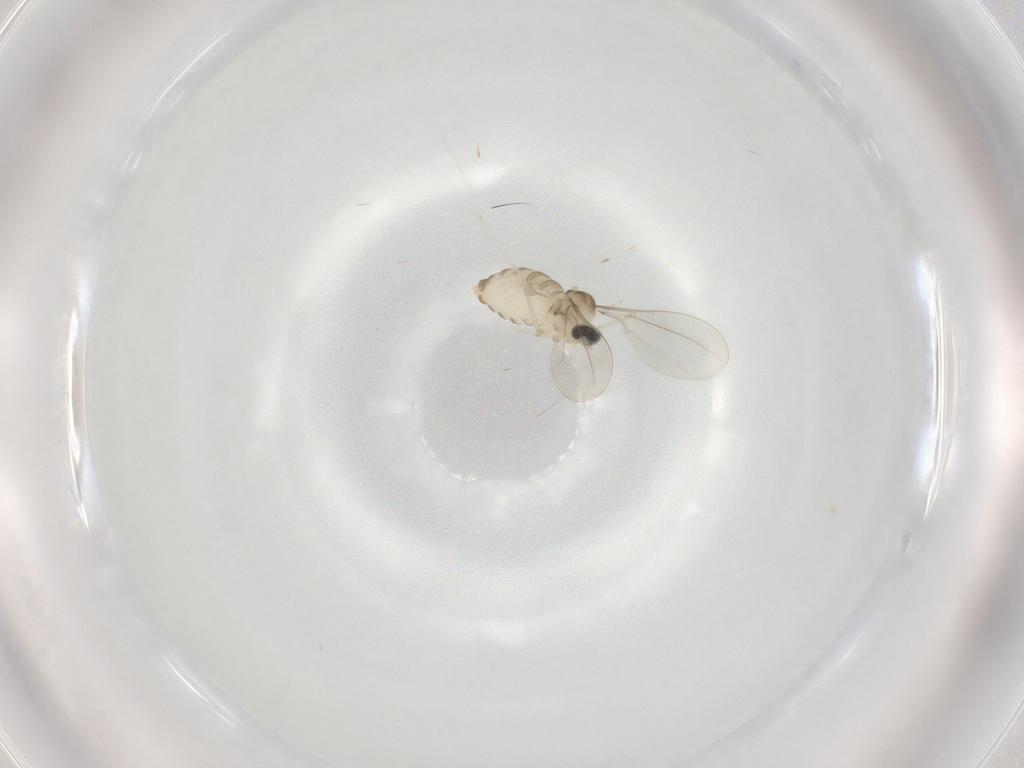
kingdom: Animalia
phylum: Arthropoda
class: Insecta
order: Diptera
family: Cecidomyiidae
